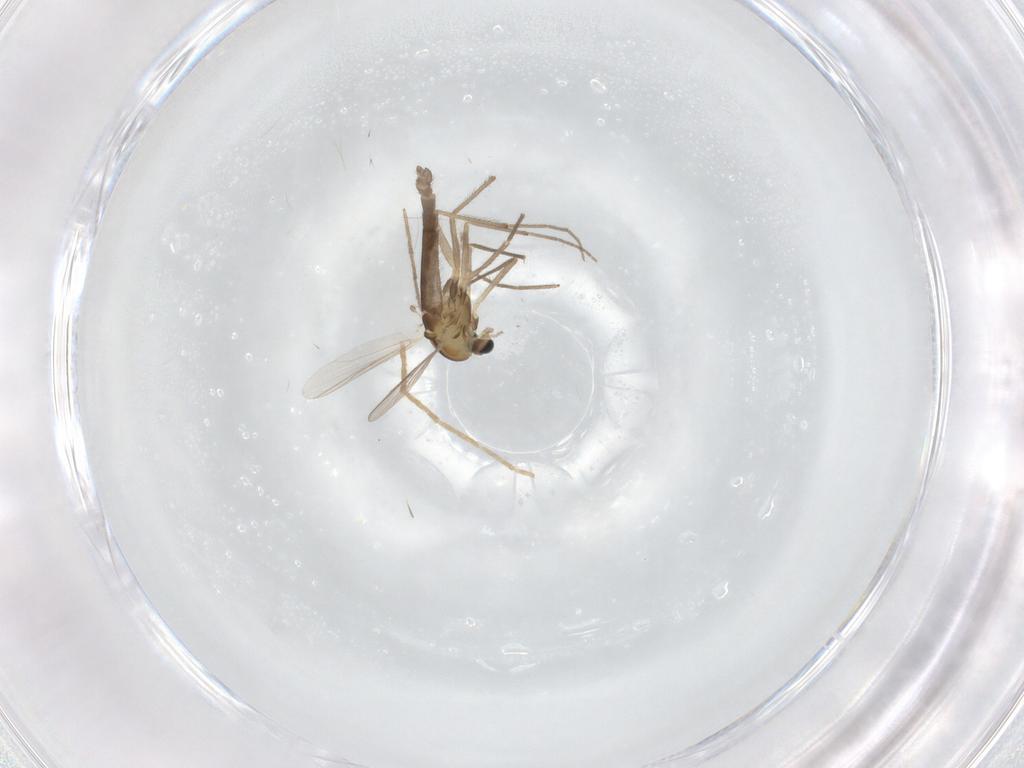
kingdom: Animalia
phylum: Arthropoda
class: Insecta
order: Diptera
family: Chironomidae
